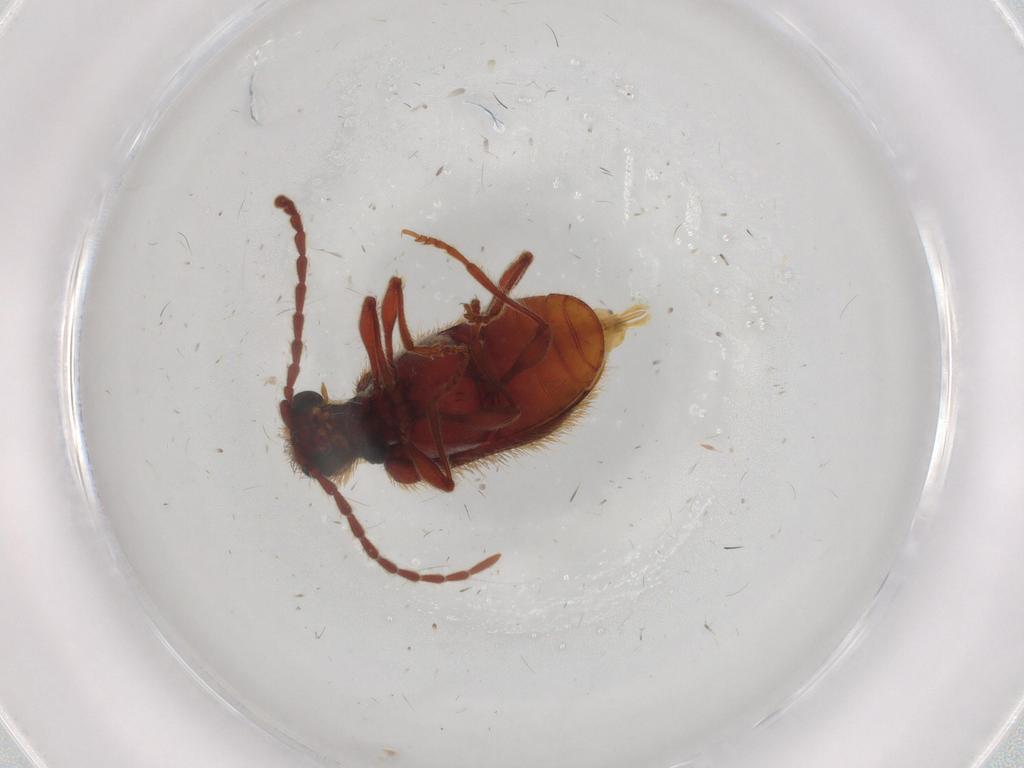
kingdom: Animalia
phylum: Arthropoda
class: Insecta
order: Coleoptera
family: Ptinidae
